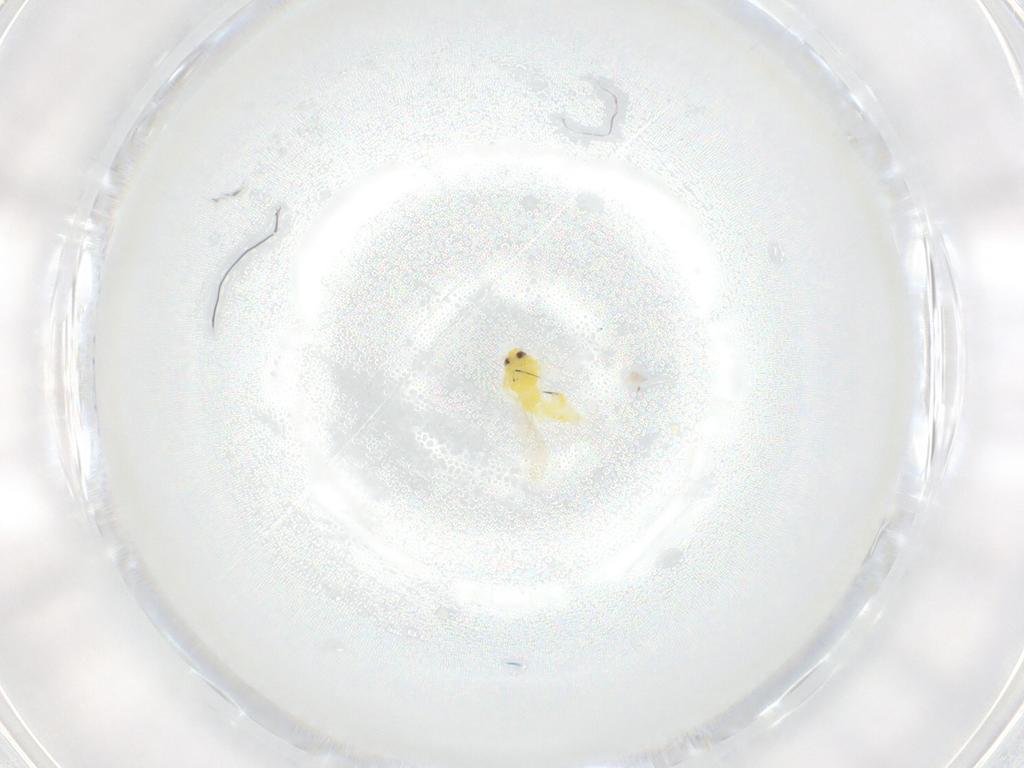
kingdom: Animalia
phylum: Arthropoda
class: Insecta
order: Hemiptera
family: Aleyrodidae
